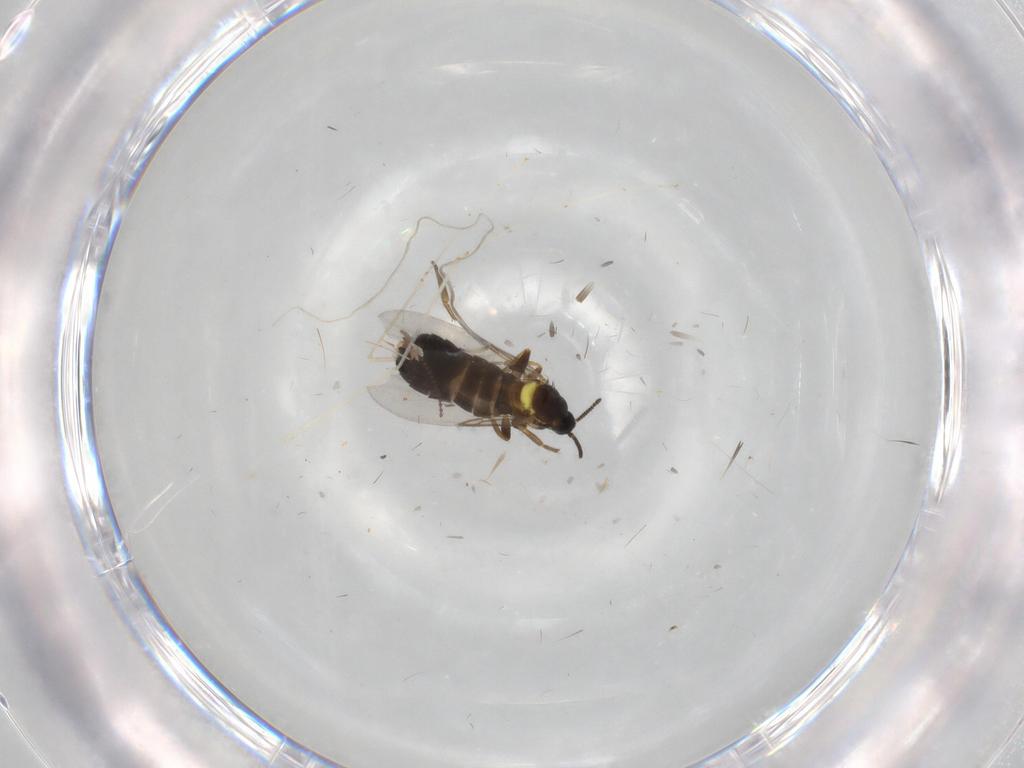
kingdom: Animalia
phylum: Arthropoda
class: Insecta
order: Diptera
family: Scatopsidae
